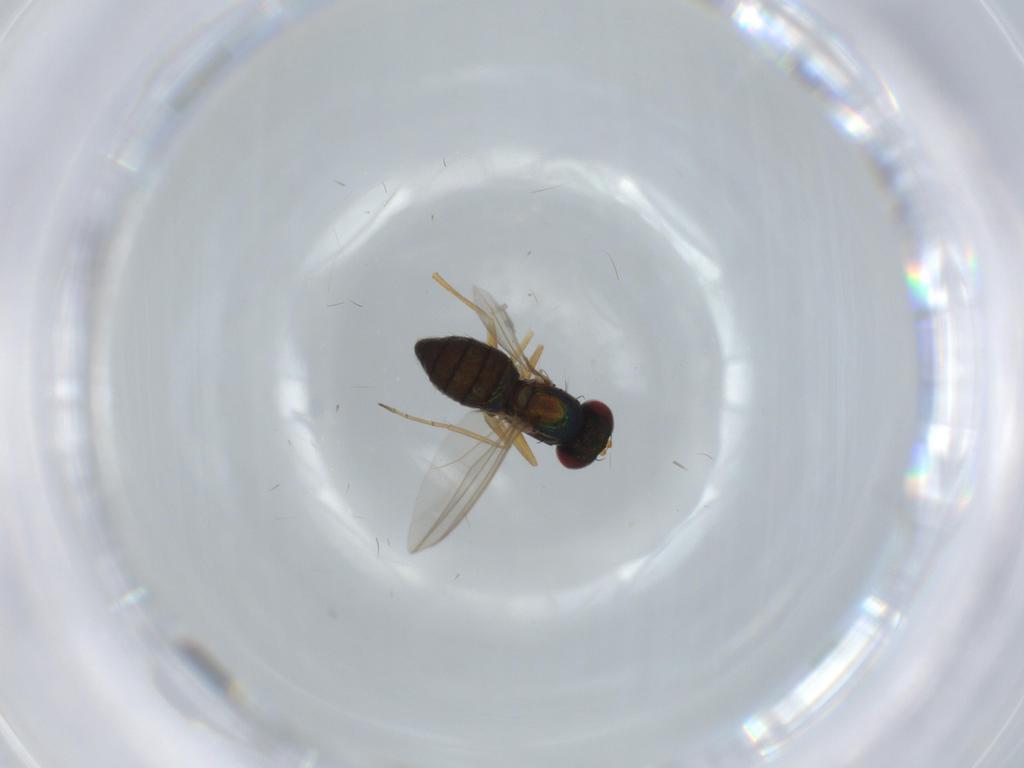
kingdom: Animalia
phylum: Arthropoda
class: Insecta
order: Diptera
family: Dolichopodidae
